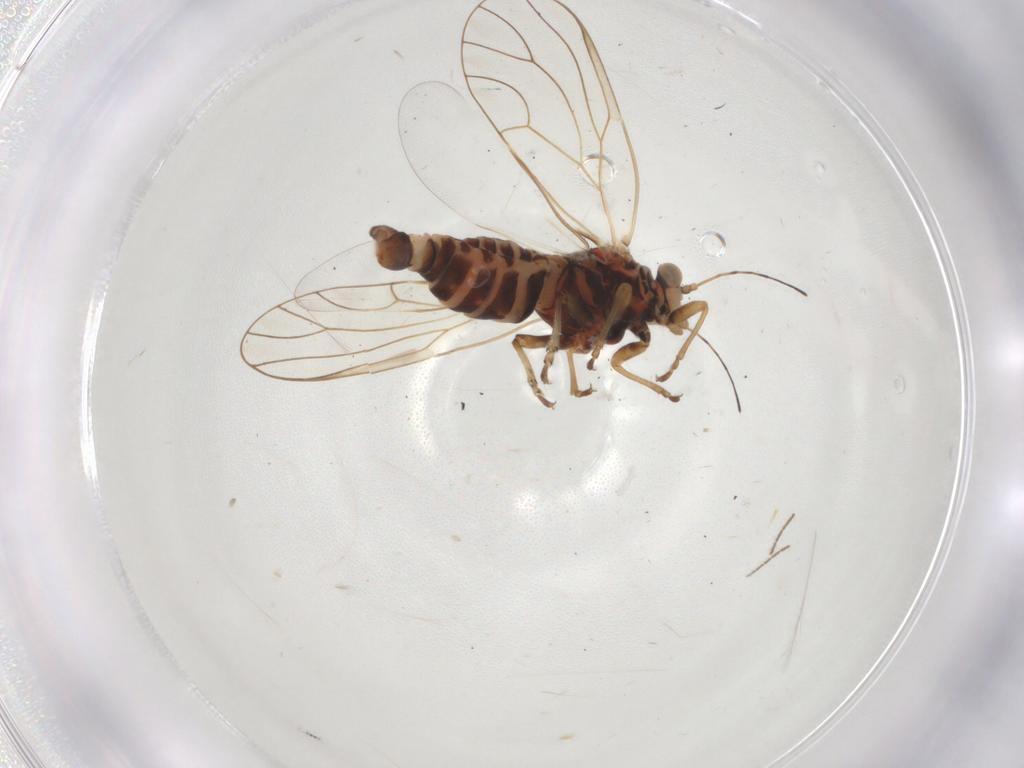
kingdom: Animalia
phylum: Arthropoda
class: Insecta
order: Hemiptera
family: Psyllidae
